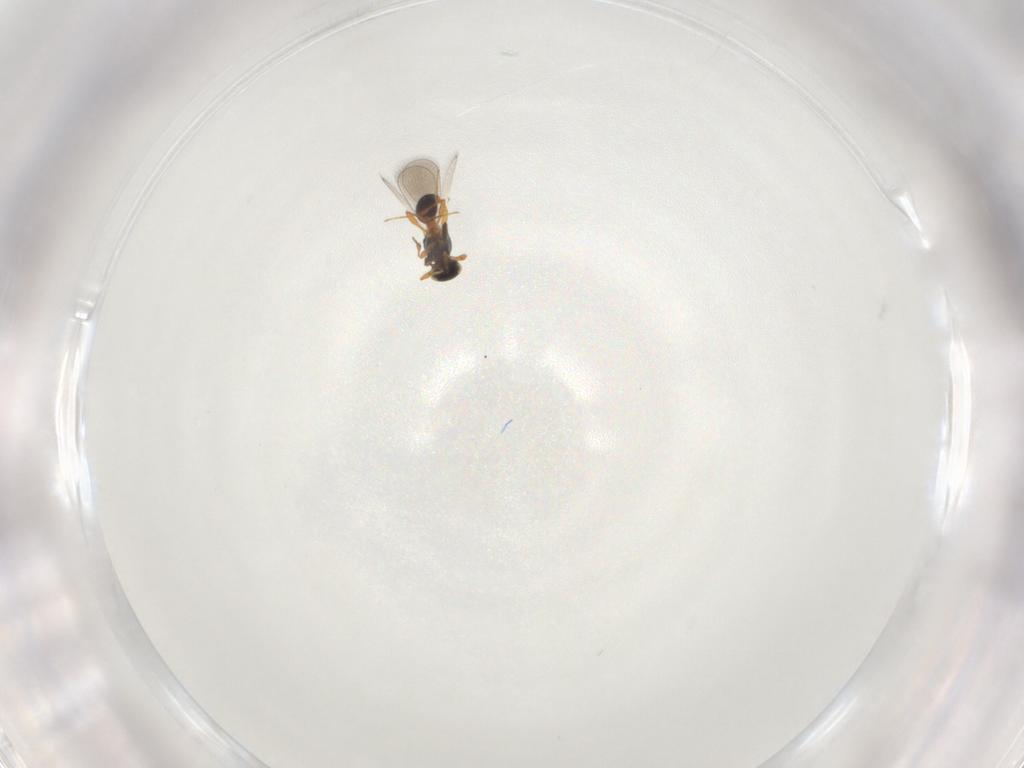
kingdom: Animalia
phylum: Arthropoda
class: Insecta
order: Hymenoptera
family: Platygastridae
